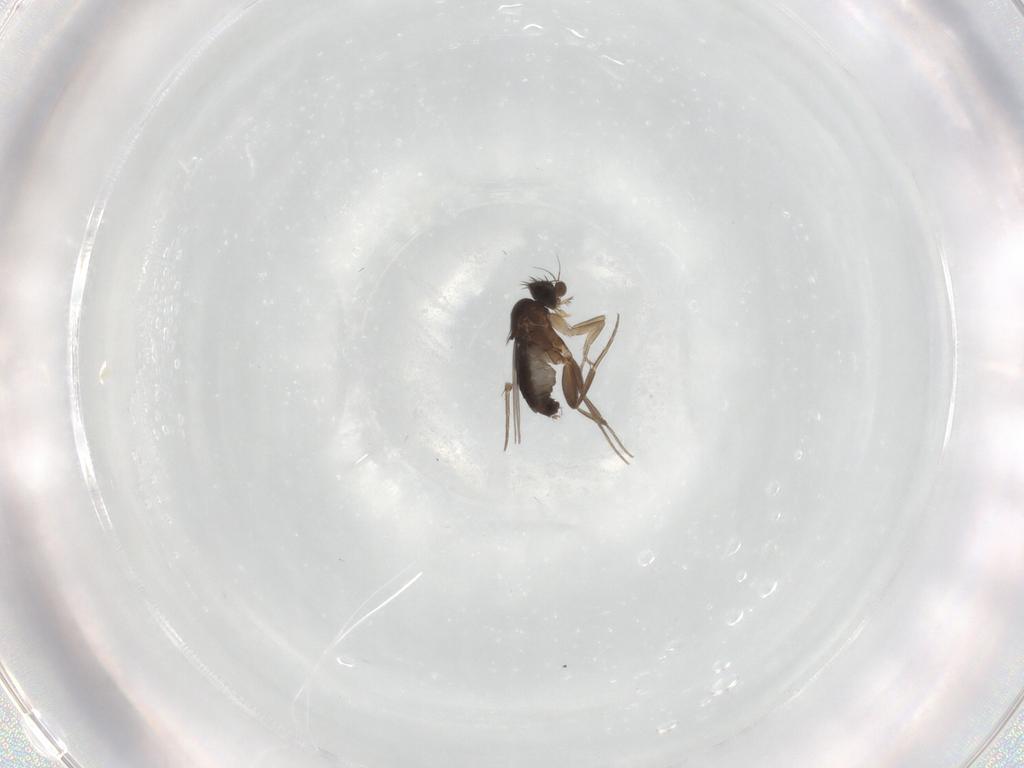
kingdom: Animalia
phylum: Arthropoda
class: Insecta
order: Diptera
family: Phoridae
